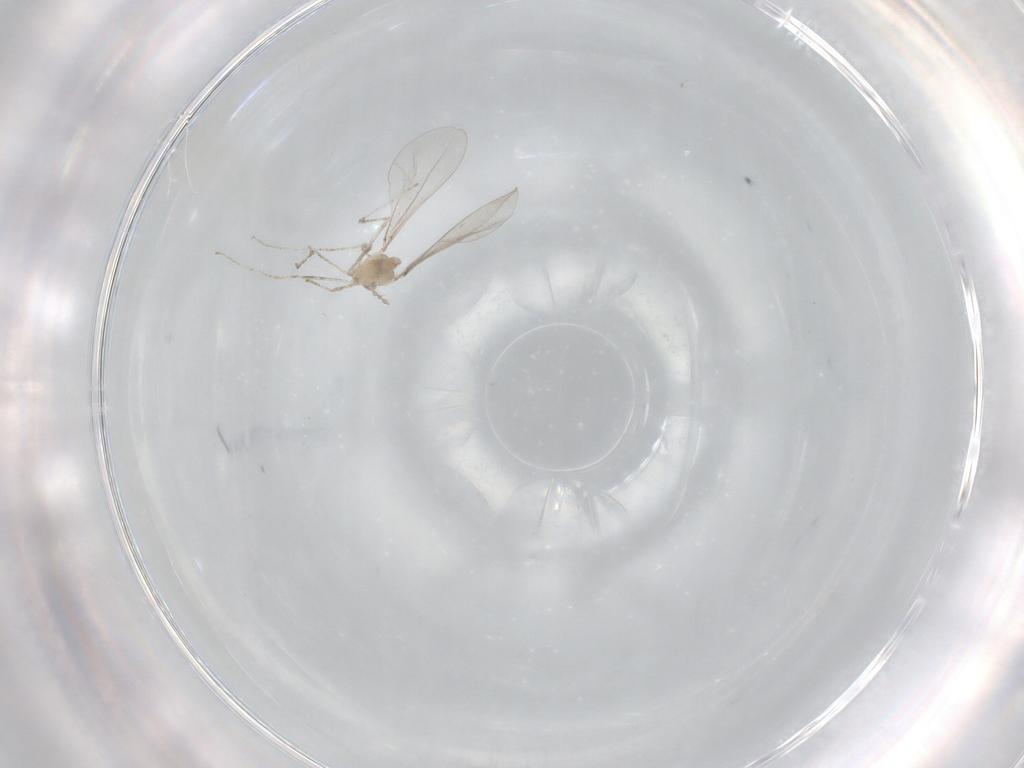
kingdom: Animalia
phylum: Arthropoda
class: Insecta
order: Diptera
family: Cecidomyiidae
